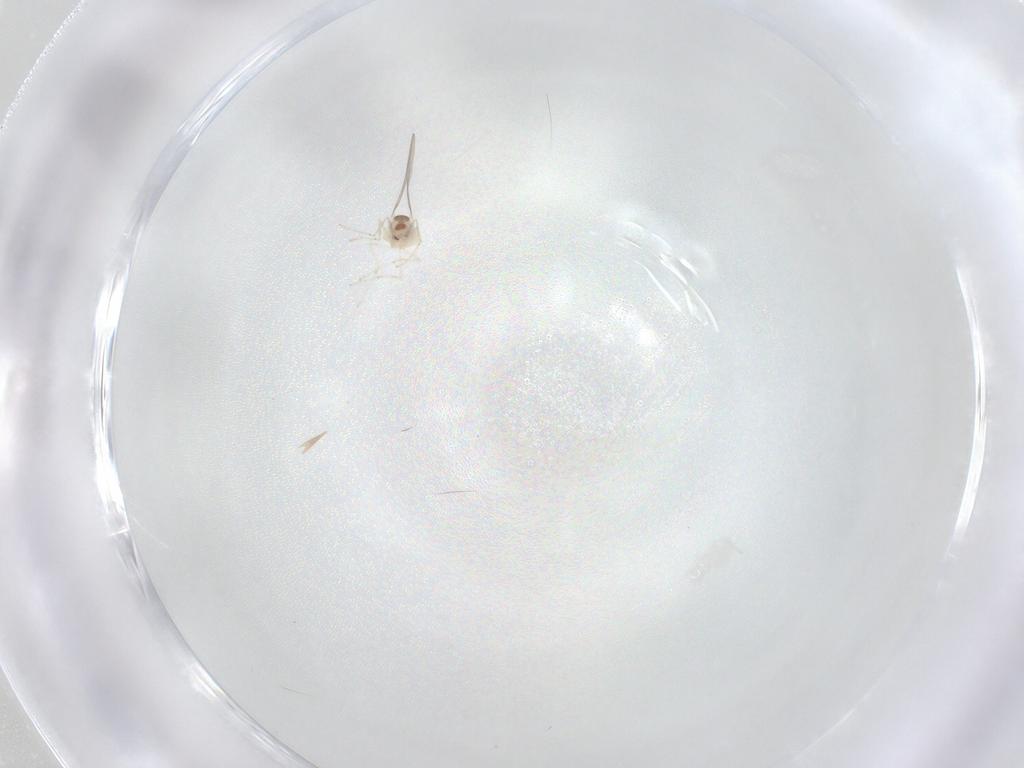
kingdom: Animalia
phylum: Arthropoda
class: Insecta
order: Diptera
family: Cecidomyiidae
